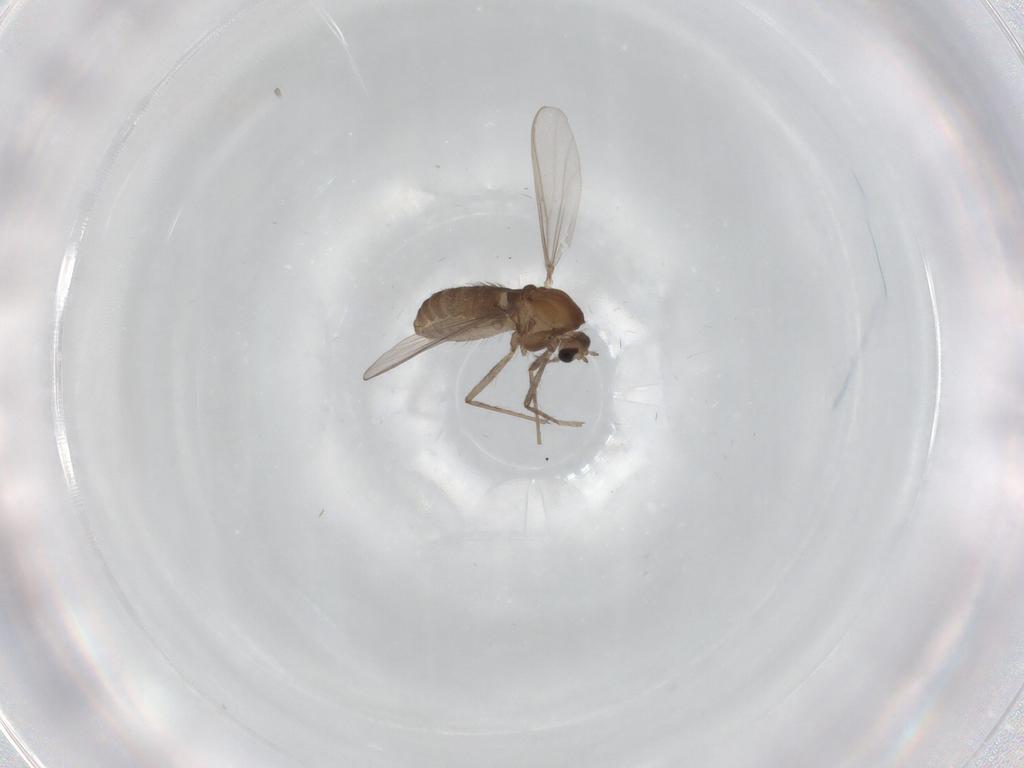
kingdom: Animalia
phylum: Arthropoda
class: Insecta
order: Diptera
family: Chironomidae
